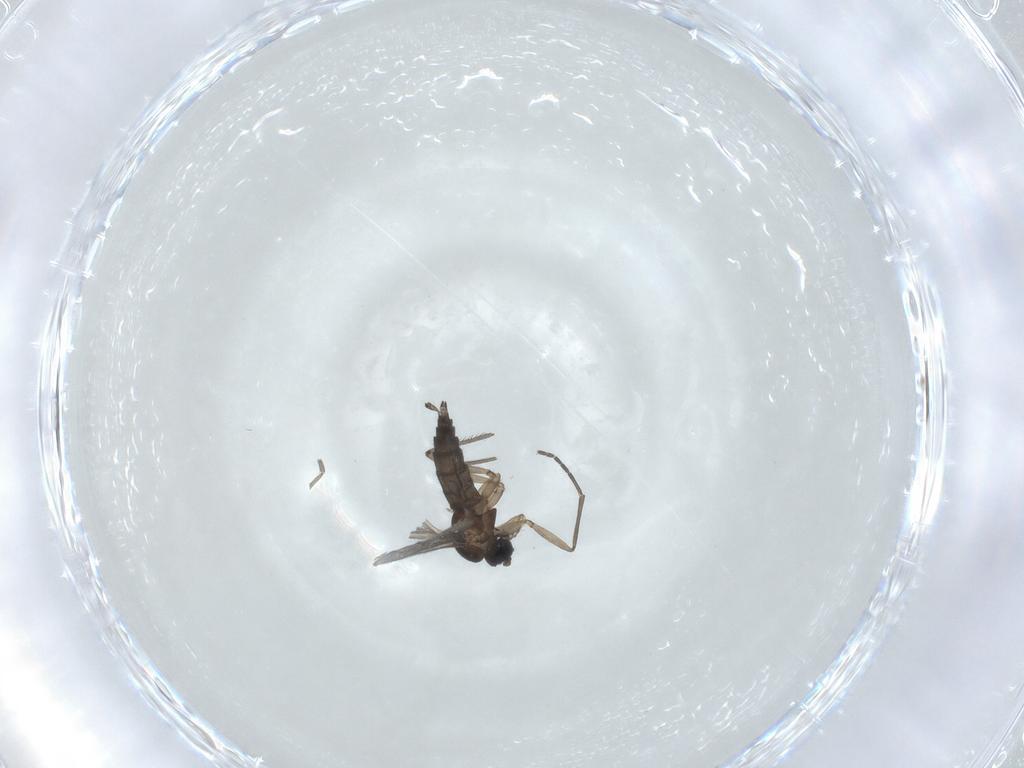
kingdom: Animalia
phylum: Arthropoda
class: Insecta
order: Diptera
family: Sciaridae
